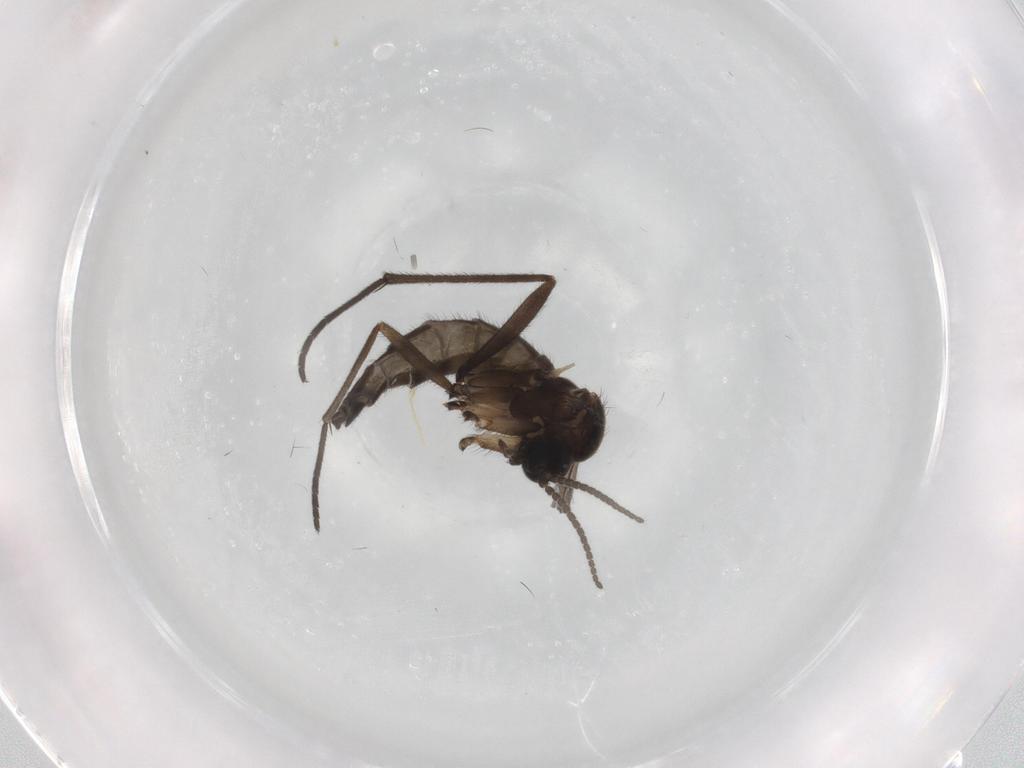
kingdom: Animalia
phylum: Arthropoda
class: Insecta
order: Diptera
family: Sciaridae
